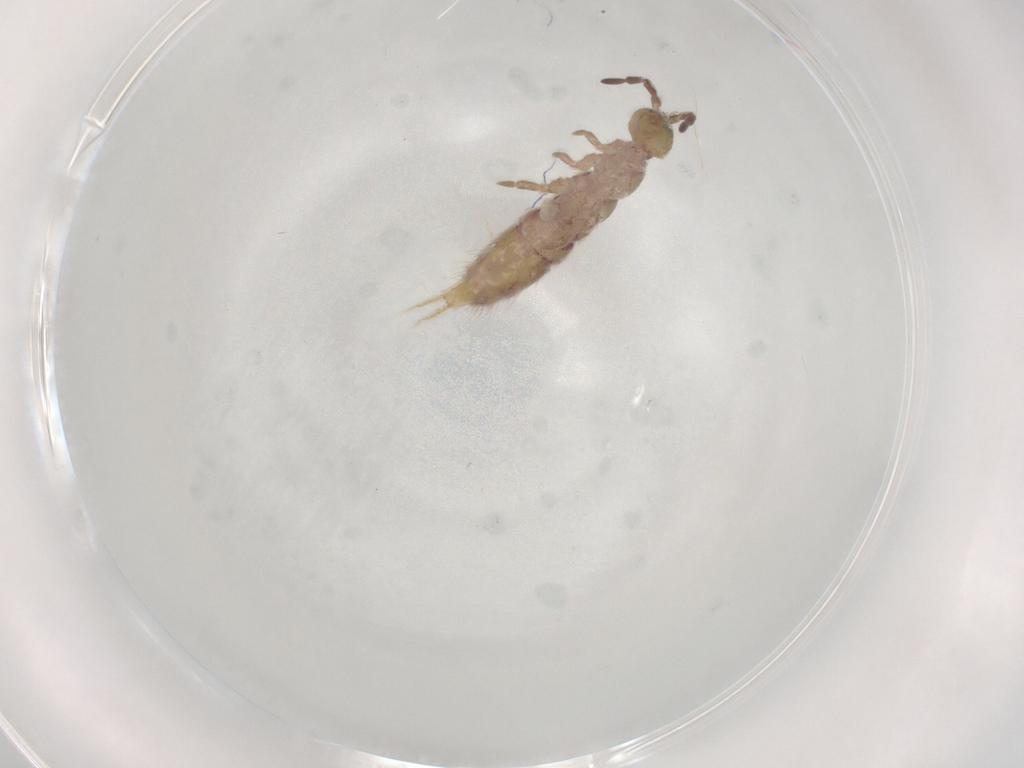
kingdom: Animalia
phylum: Arthropoda
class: Collembola
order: Entomobryomorpha
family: Isotomidae
